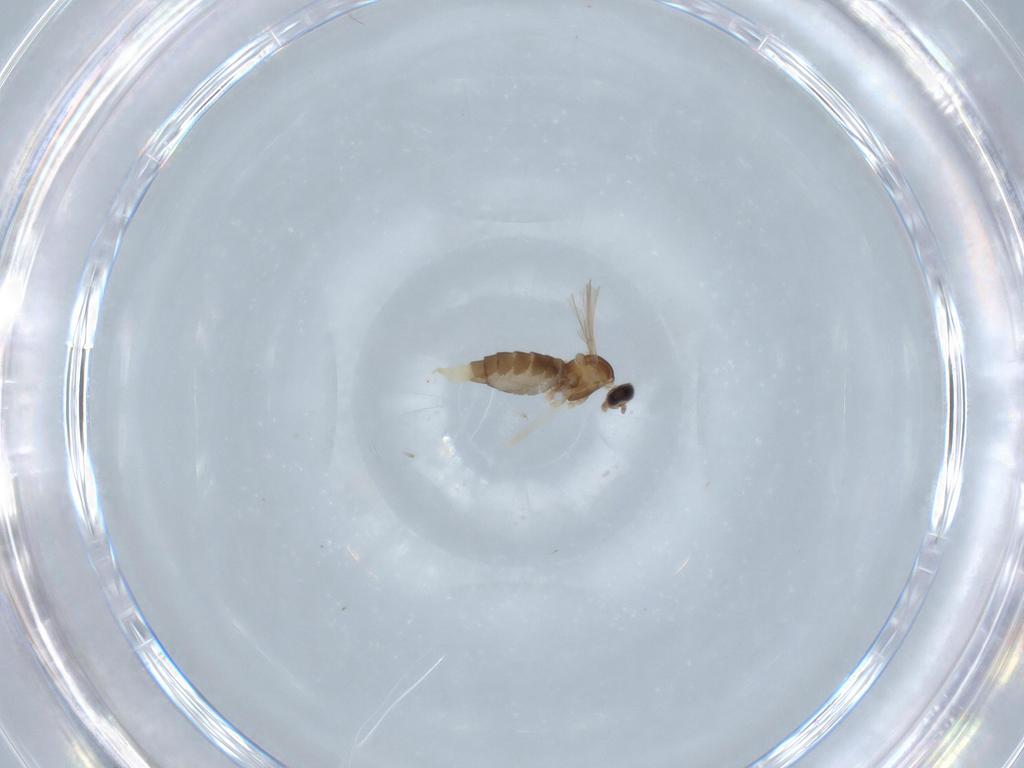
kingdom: Animalia
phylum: Arthropoda
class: Insecta
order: Diptera
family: Cecidomyiidae
